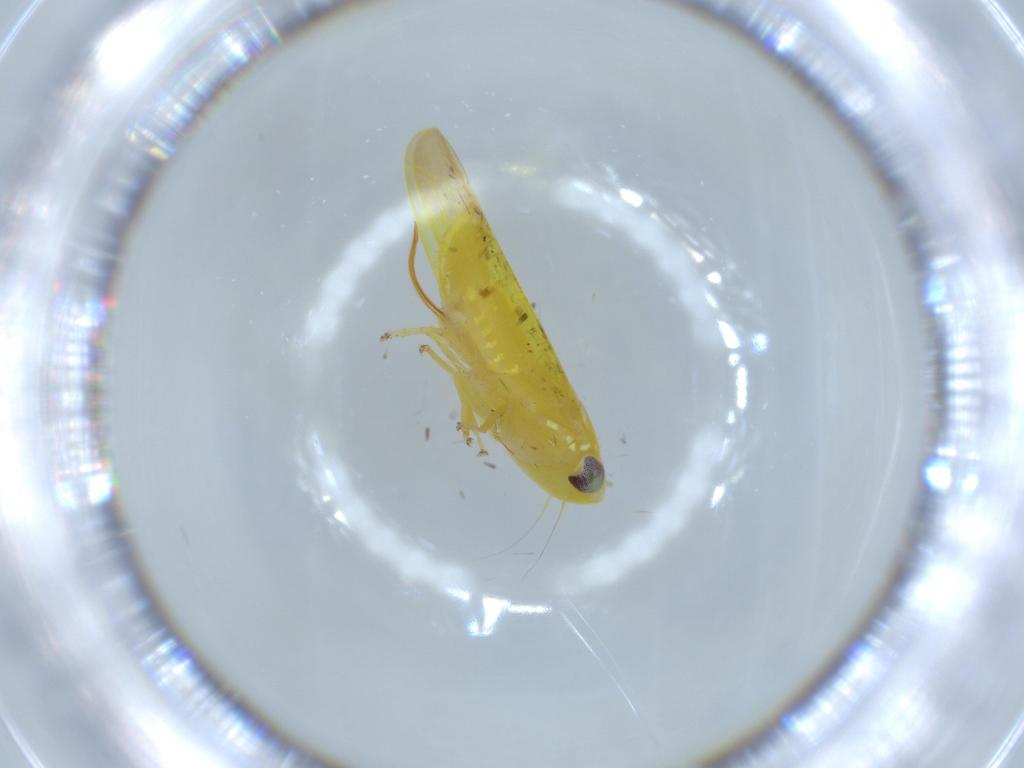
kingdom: Animalia
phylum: Arthropoda
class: Insecta
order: Hemiptera
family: Cicadellidae
